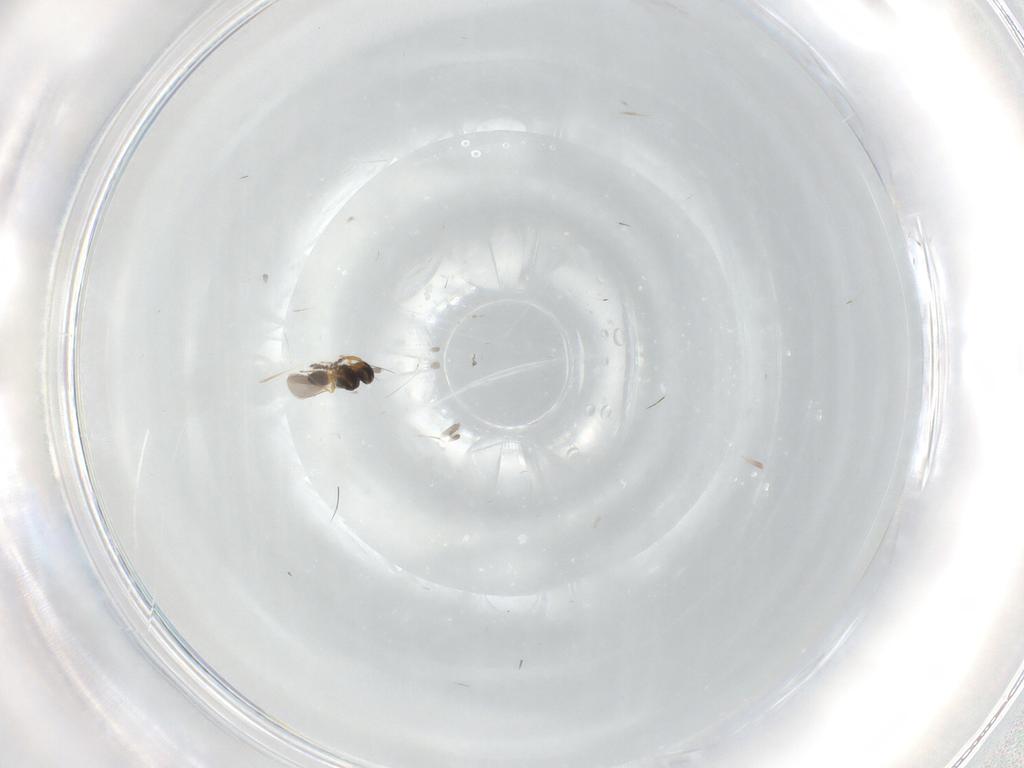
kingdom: Animalia
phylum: Arthropoda
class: Insecta
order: Hymenoptera
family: Platygastridae
